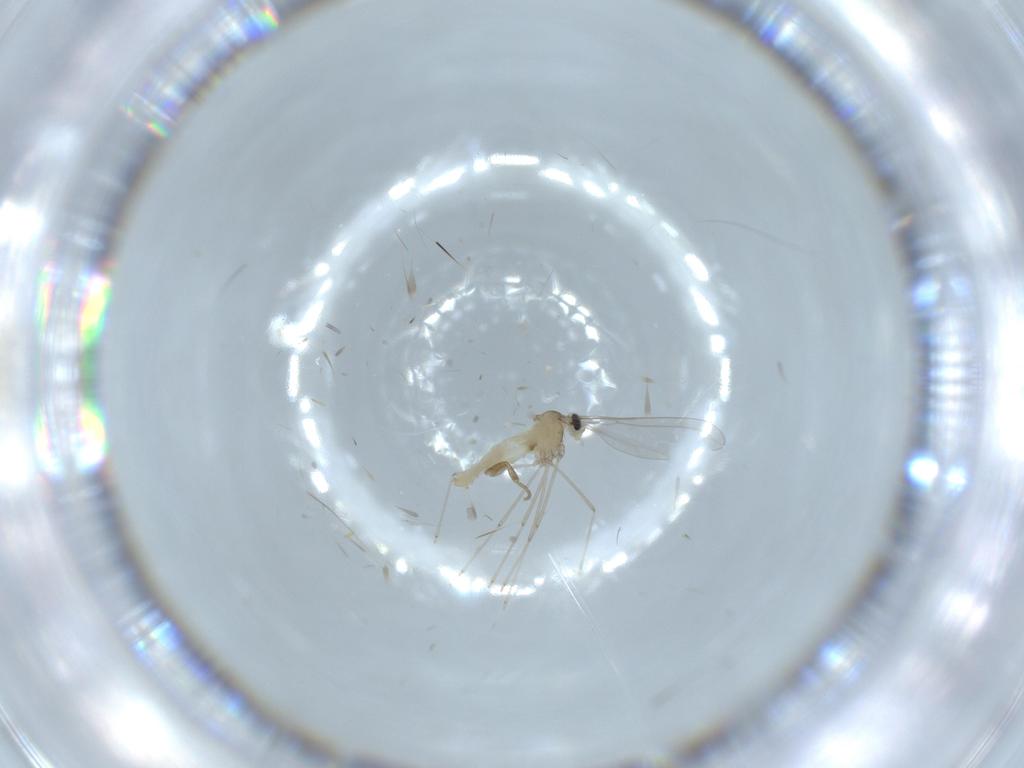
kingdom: Animalia
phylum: Arthropoda
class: Insecta
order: Diptera
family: Cecidomyiidae
